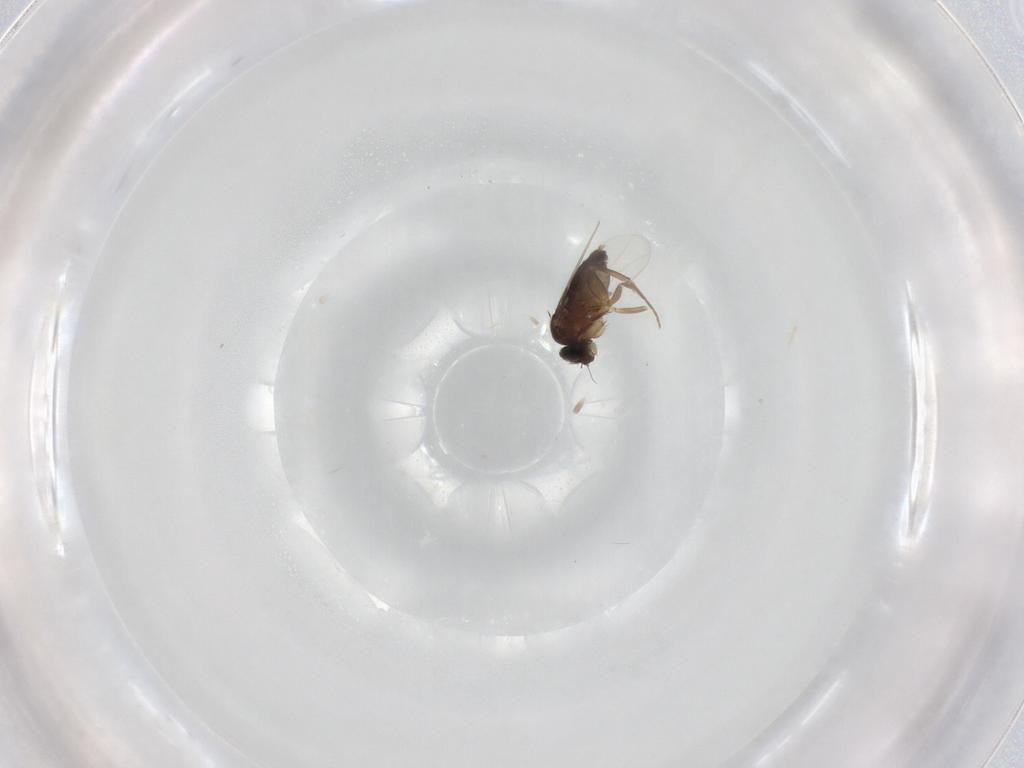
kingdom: Animalia
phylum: Arthropoda
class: Insecta
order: Diptera
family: Phoridae
